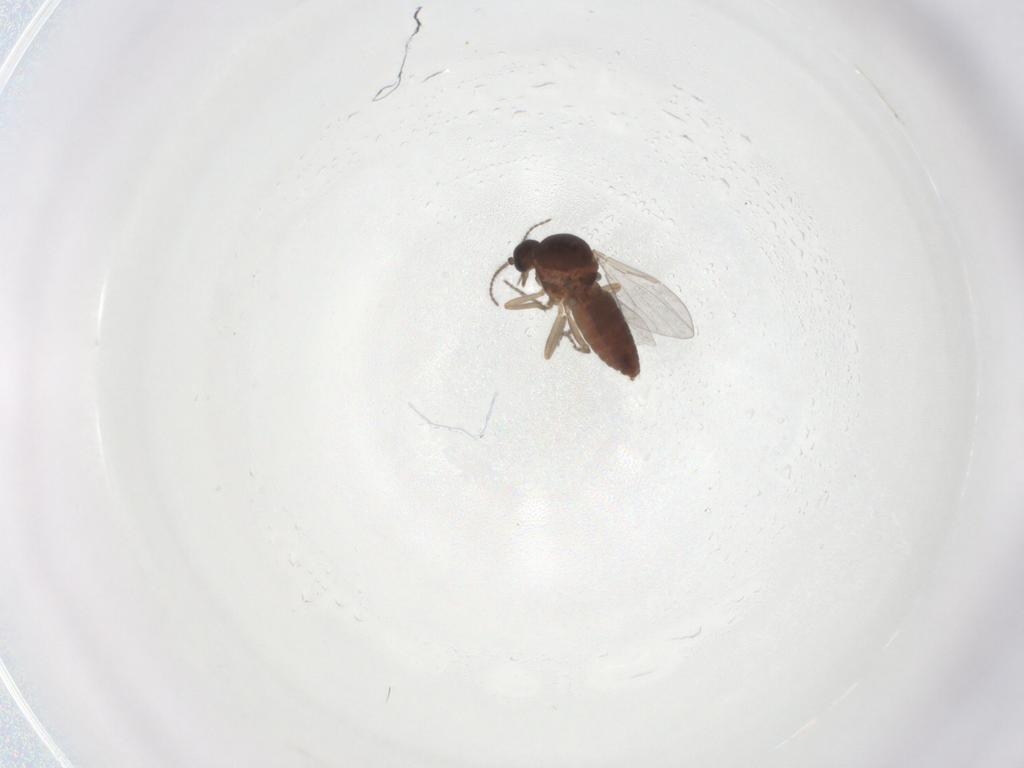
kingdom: Animalia
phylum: Arthropoda
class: Insecta
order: Diptera
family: Ceratopogonidae
